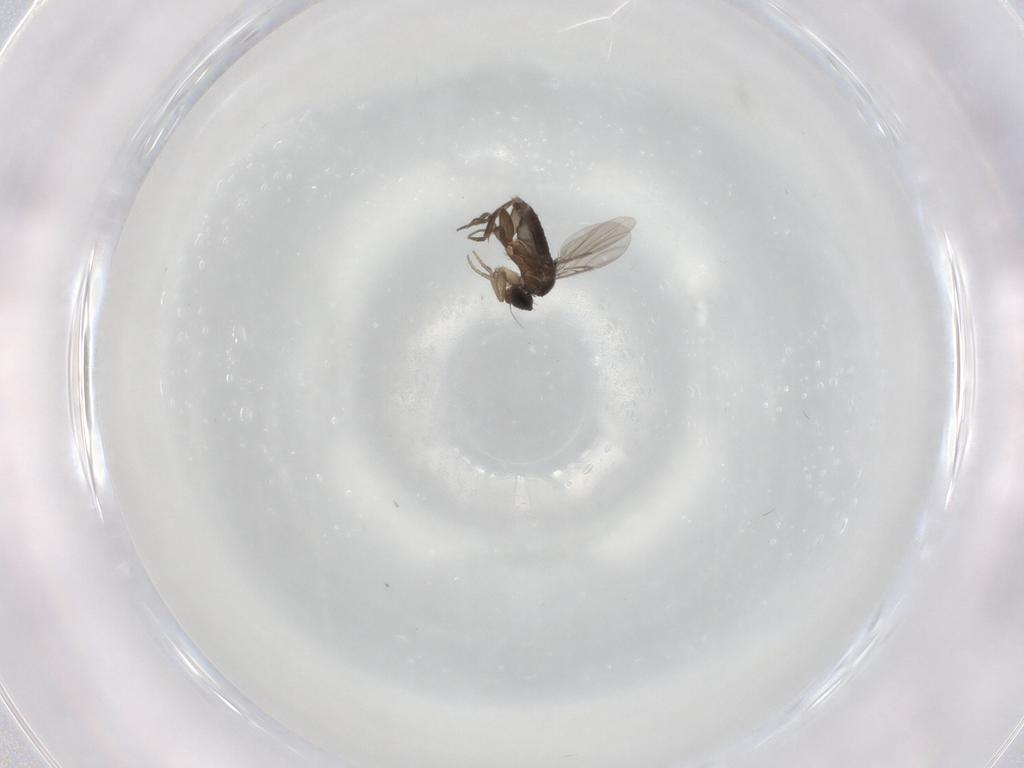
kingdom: Animalia
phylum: Arthropoda
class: Insecta
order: Diptera
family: Phoridae
